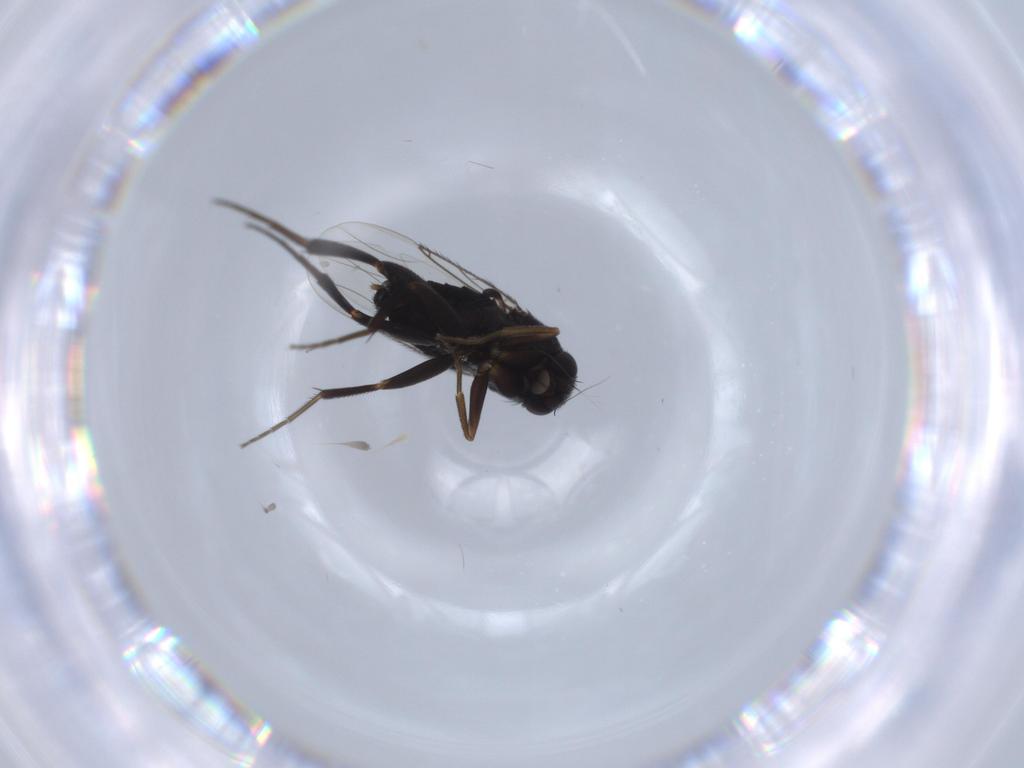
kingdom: Animalia
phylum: Arthropoda
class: Insecta
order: Diptera
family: Phoridae
